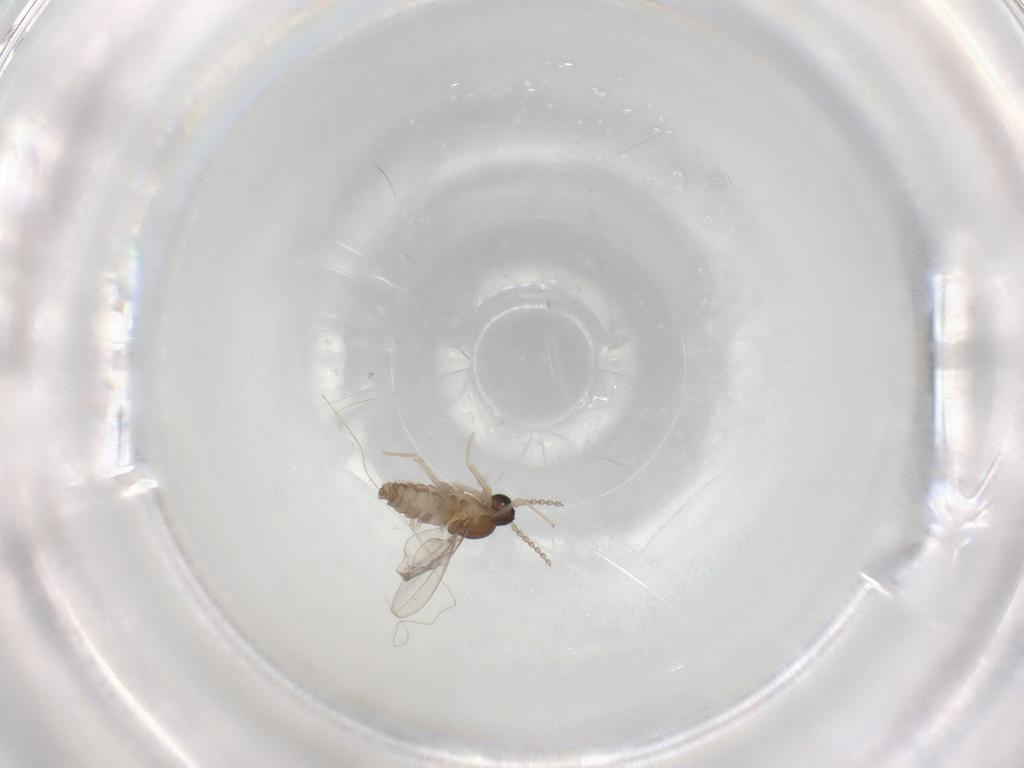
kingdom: Animalia
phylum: Arthropoda
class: Insecta
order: Diptera
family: Cecidomyiidae
